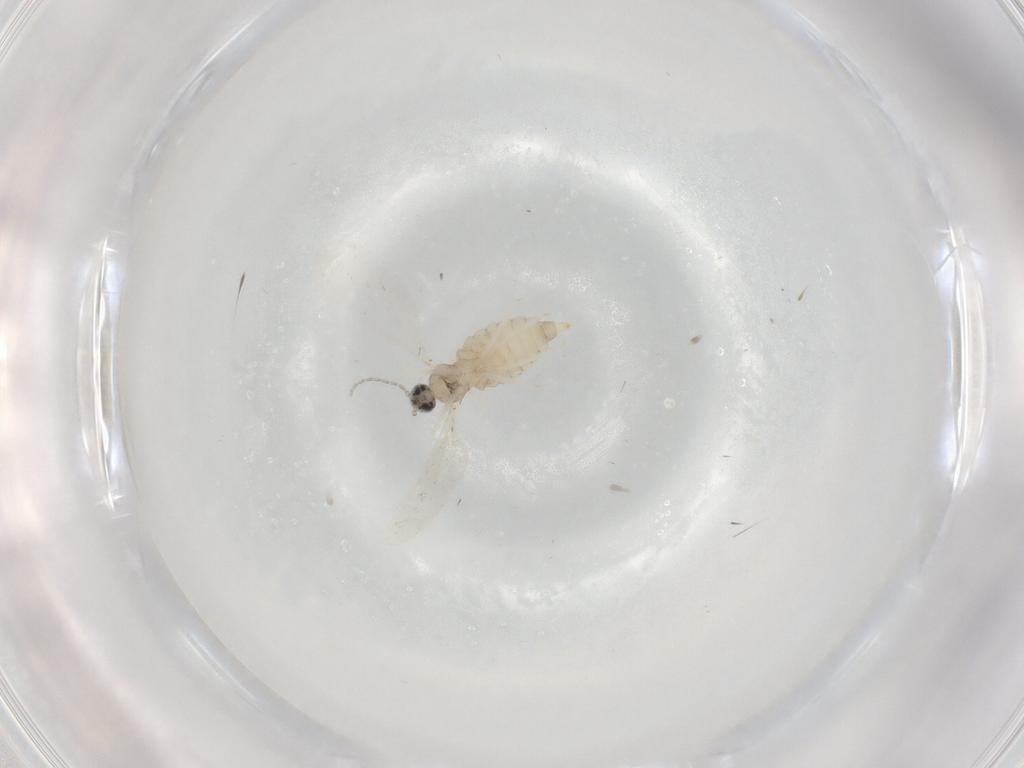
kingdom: Animalia
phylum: Arthropoda
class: Insecta
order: Diptera
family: Cecidomyiidae
